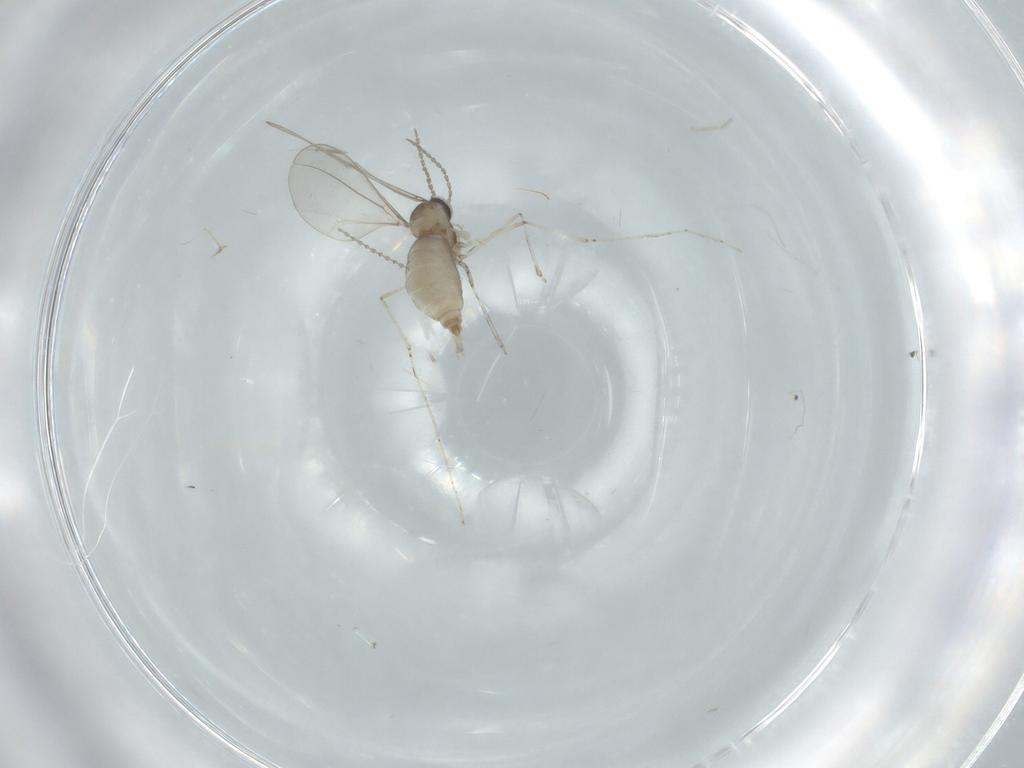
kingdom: Animalia
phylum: Arthropoda
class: Insecta
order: Diptera
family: Cecidomyiidae
